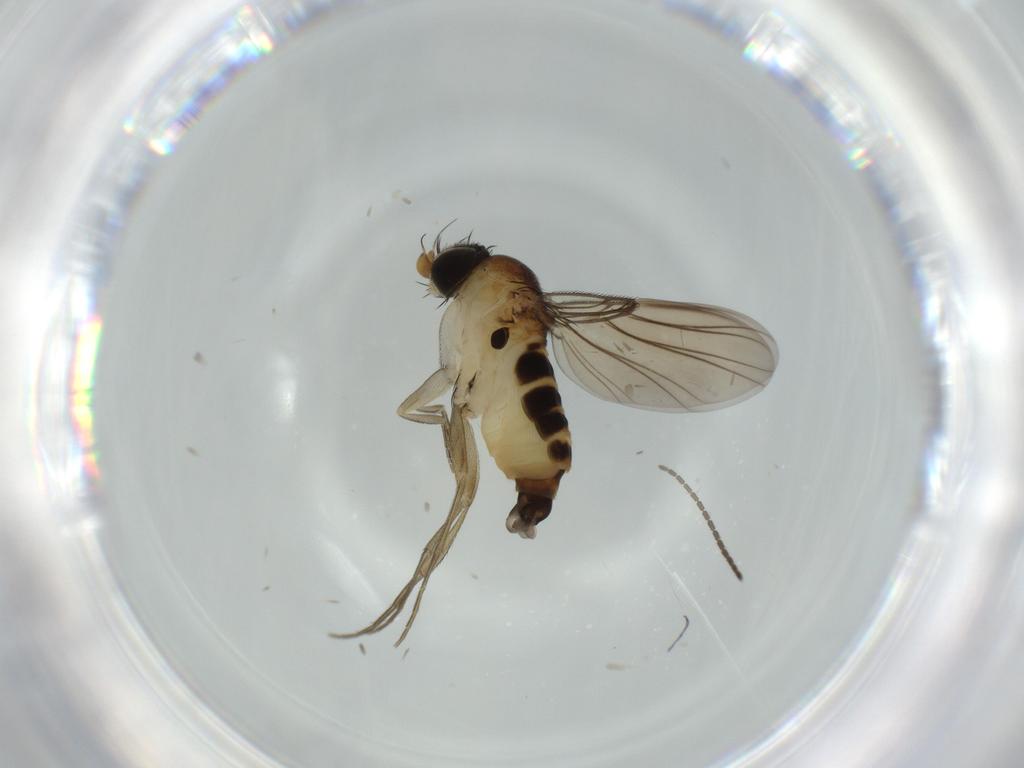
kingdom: Animalia
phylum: Arthropoda
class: Insecta
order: Diptera
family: Phoridae
